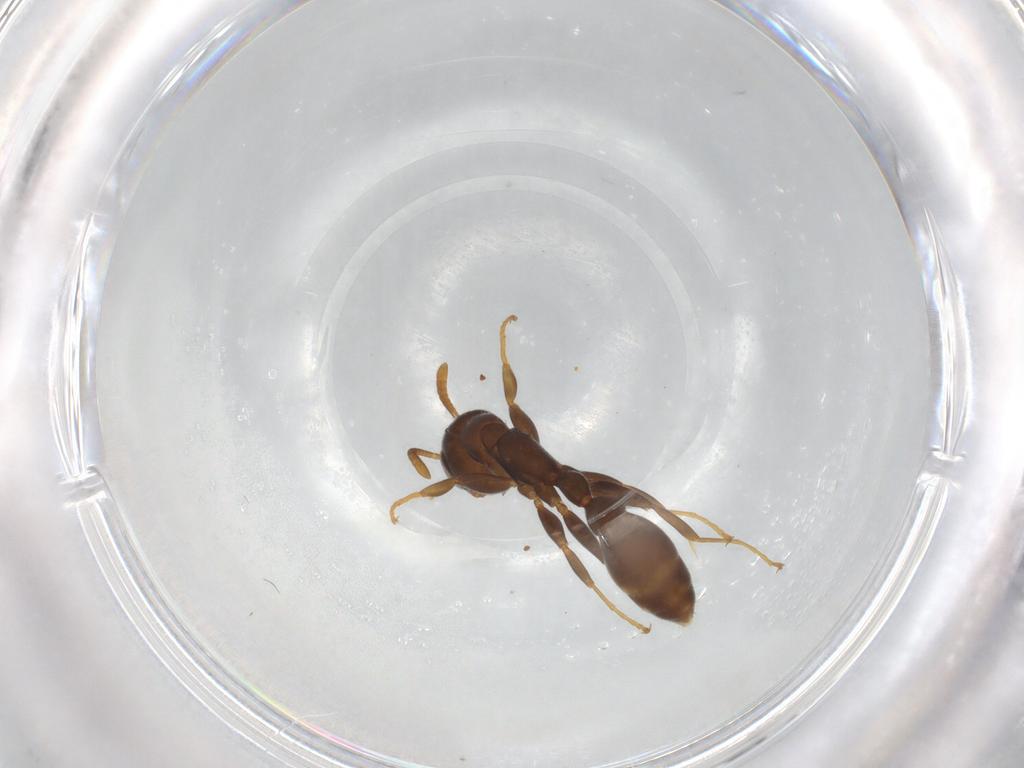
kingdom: Animalia
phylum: Arthropoda
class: Insecta
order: Hymenoptera
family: Formicidae
